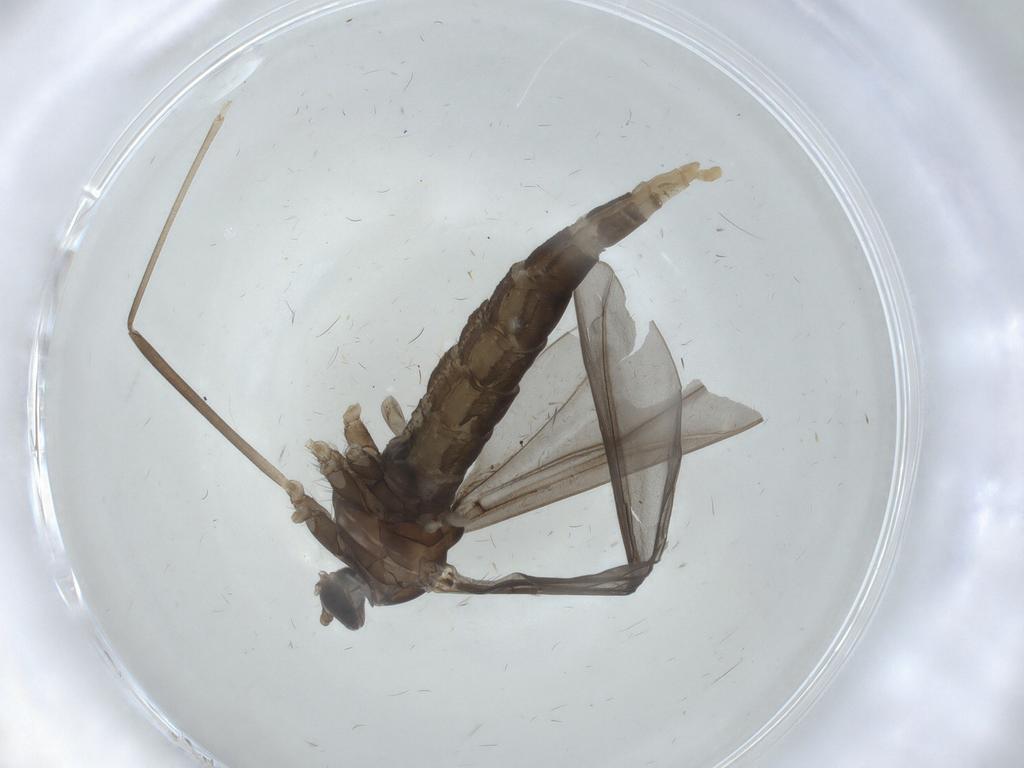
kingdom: Animalia
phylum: Arthropoda
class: Insecta
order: Diptera
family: Cecidomyiidae
